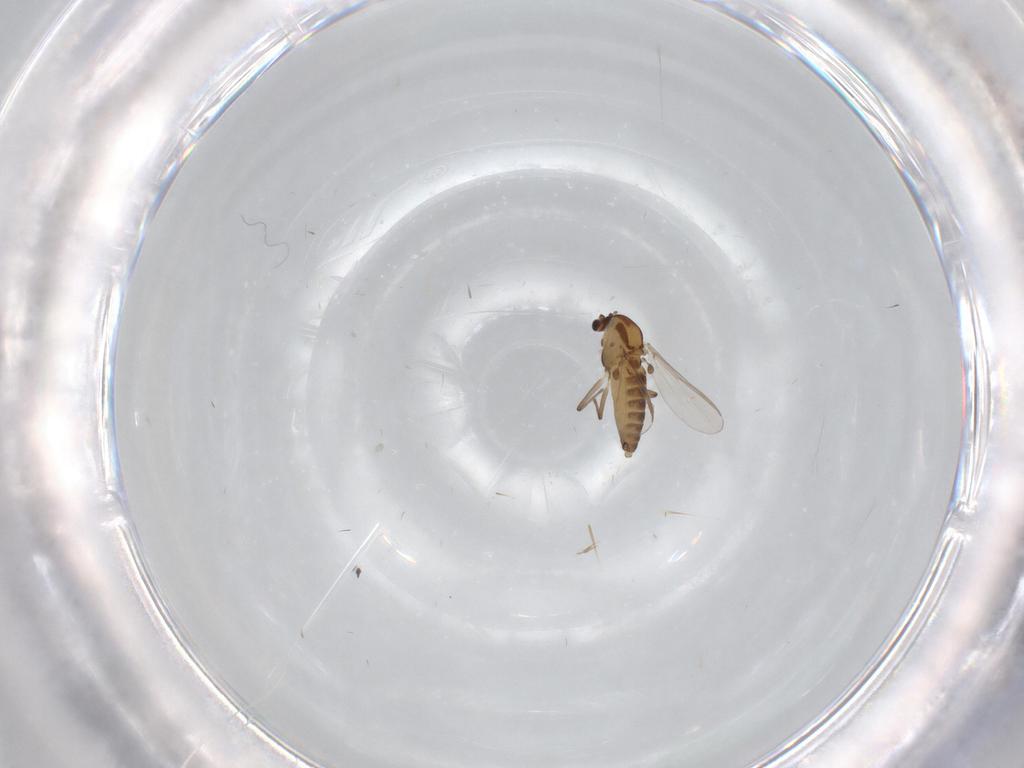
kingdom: Animalia
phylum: Arthropoda
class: Insecta
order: Diptera
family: Chironomidae
